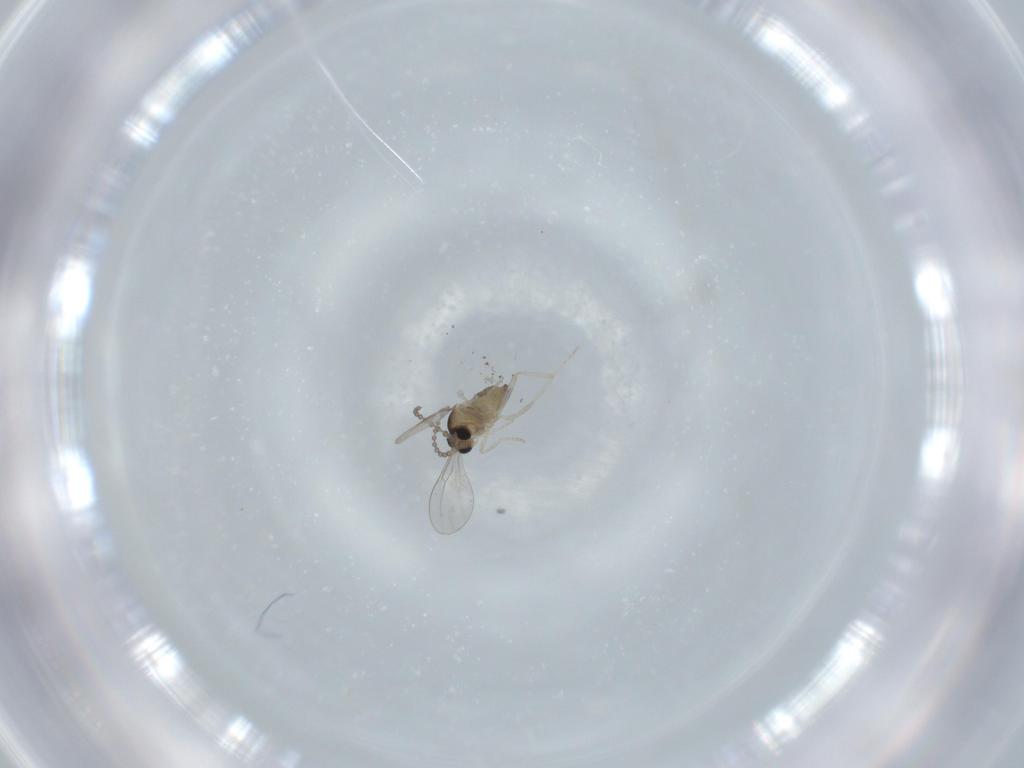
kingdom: Animalia
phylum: Arthropoda
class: Insecta
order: Diptera
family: Cecidomyiidae
